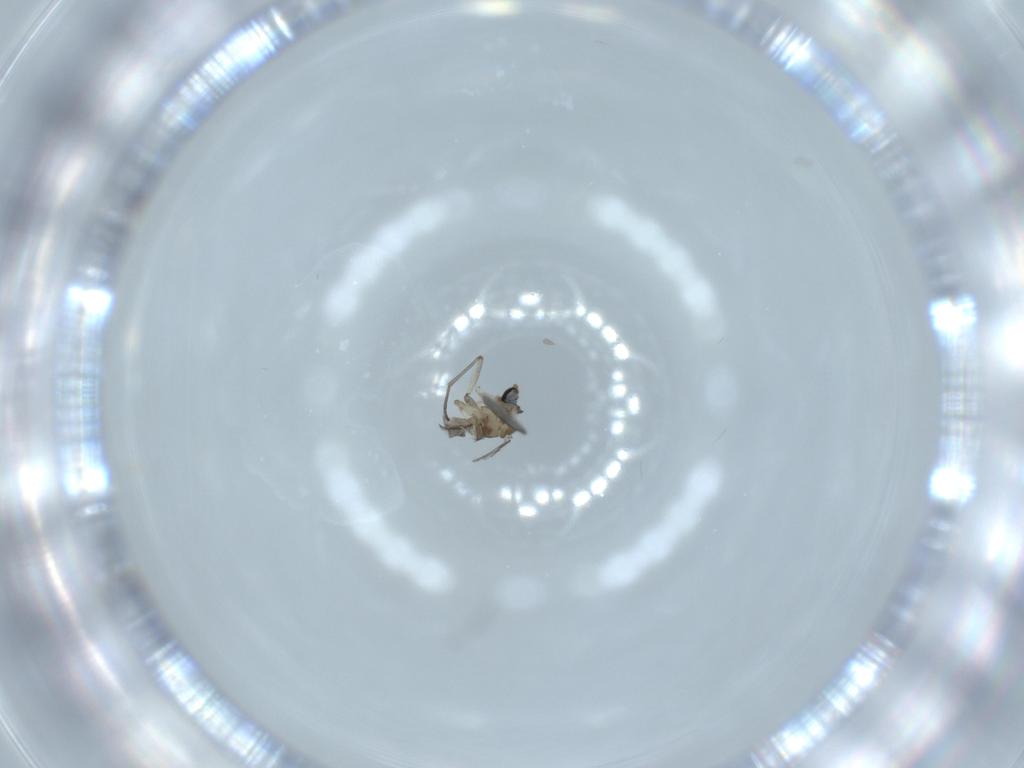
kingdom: Animalia
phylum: Arthropoda
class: Insecta
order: Diptera
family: Sciaridae
